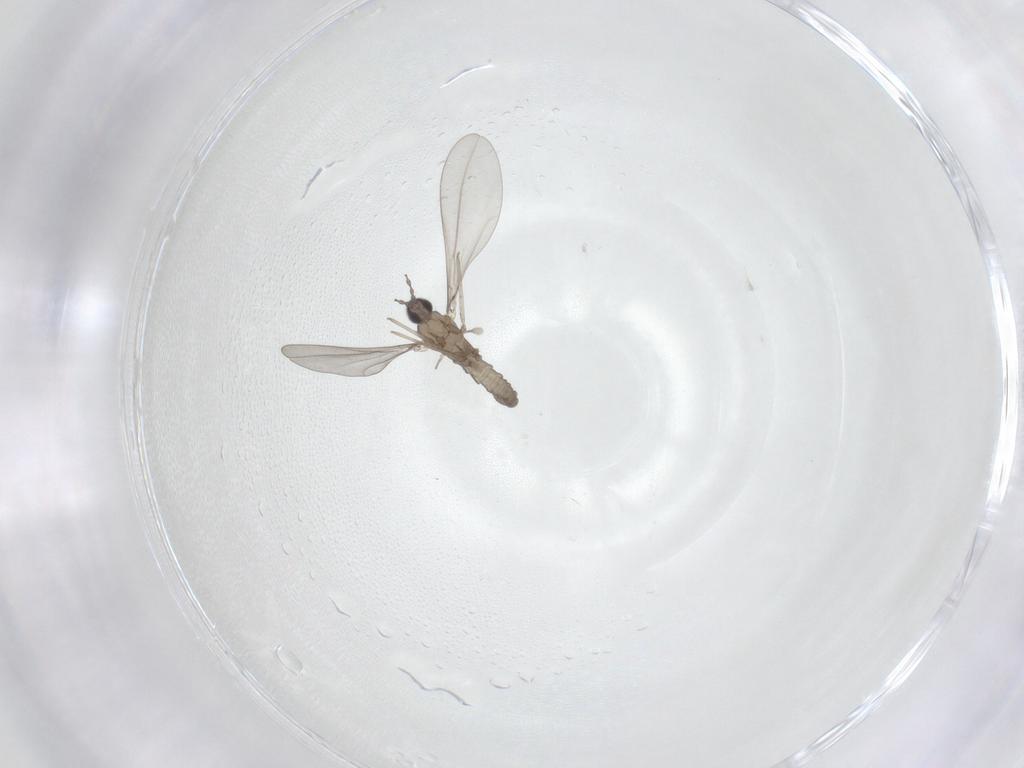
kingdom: Animalia
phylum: Arthropoda
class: Insecta
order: Diptera
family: Cecidomyiidae
